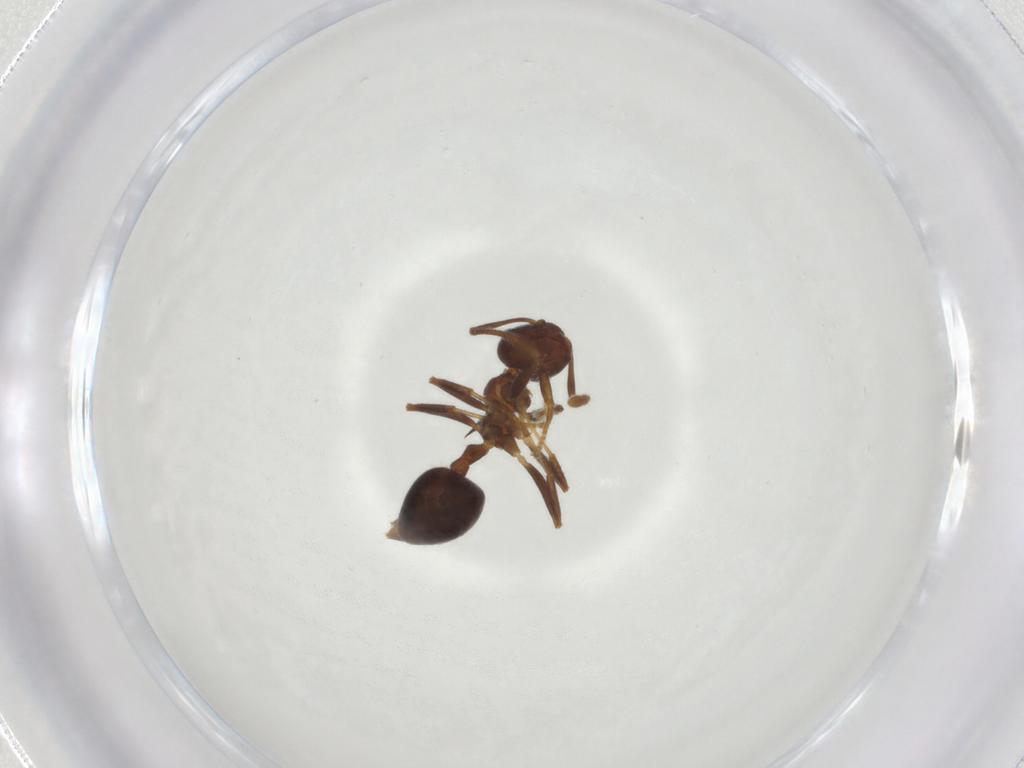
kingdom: Animalia
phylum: Arthropoda
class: Insecta
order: Hymenoptera
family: Formicidae
